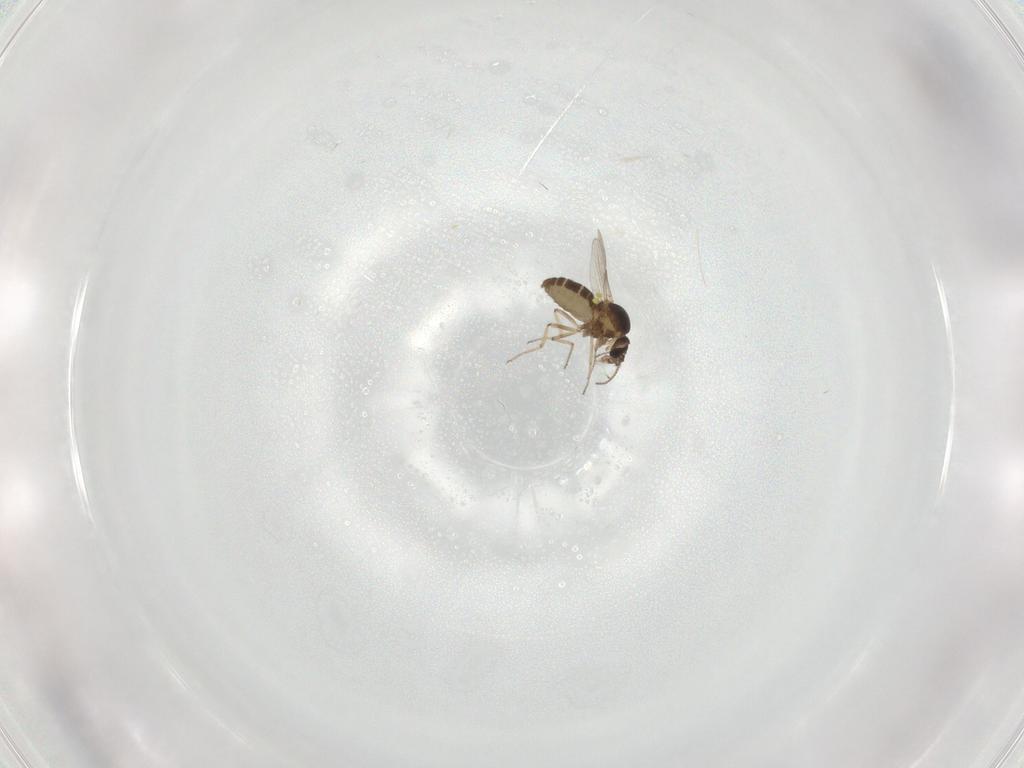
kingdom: Animalia
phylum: Arthropoda
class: Insecta
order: Diptera
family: Ceratopogonidae
